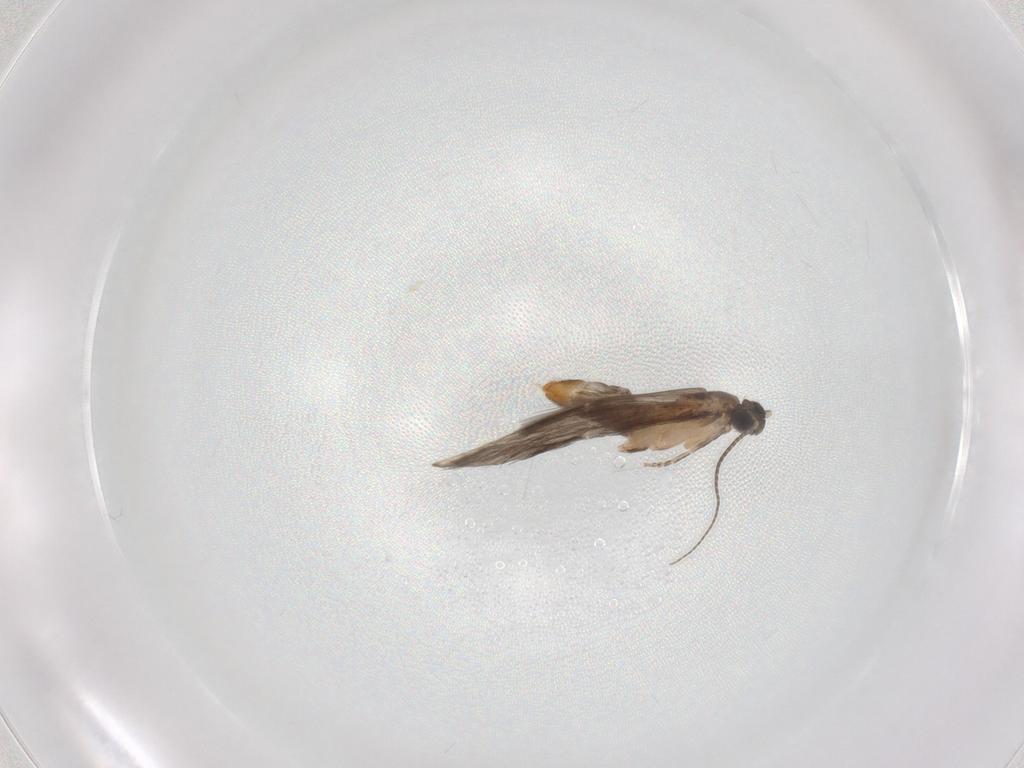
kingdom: Animalia
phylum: Arthropoda
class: Insecta
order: Trichoptera
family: Hydroptilidae
